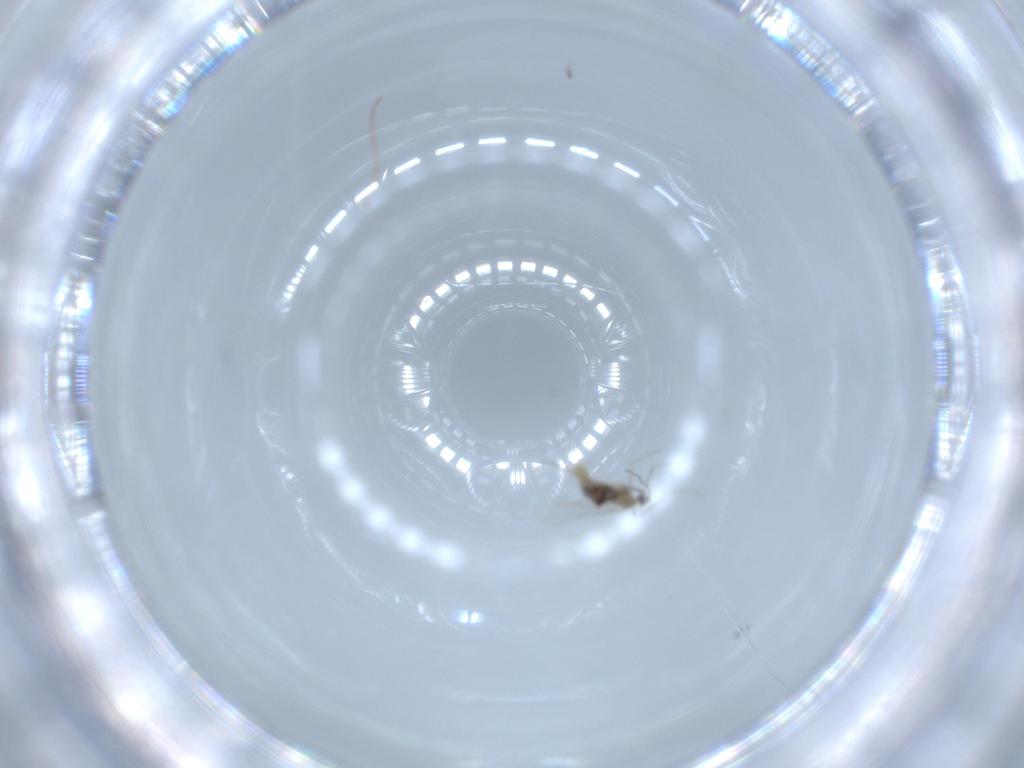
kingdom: Animalia
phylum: Arthropoda
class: Insecta
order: Diptera
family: Cecidomyiidae
